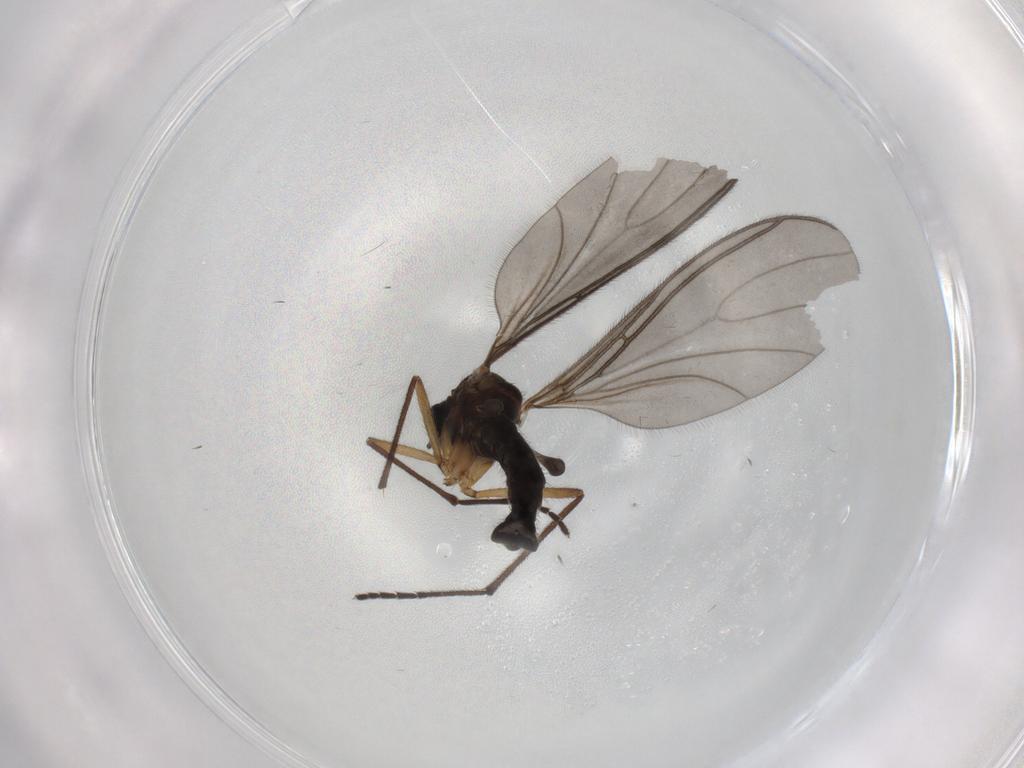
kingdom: Animalia
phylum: Arthropoda
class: Insecta
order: Diptera
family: Sciaridae
